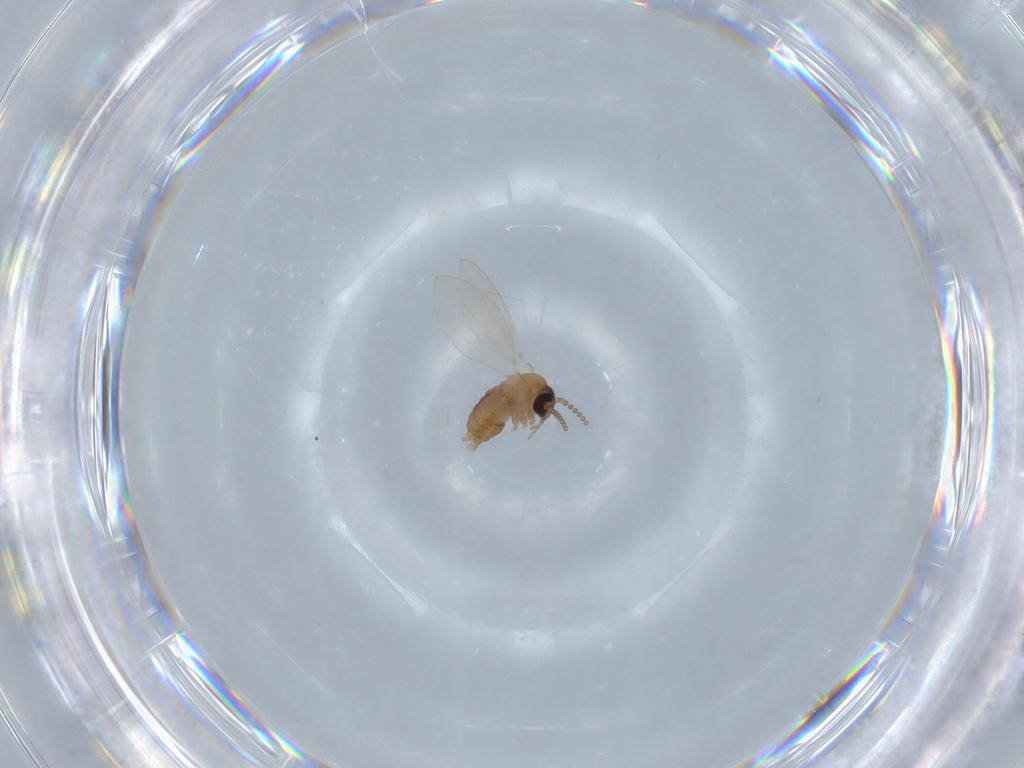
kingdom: Animalia
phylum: Arthropoda
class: Insecta
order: Diptera
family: Psychodidae
